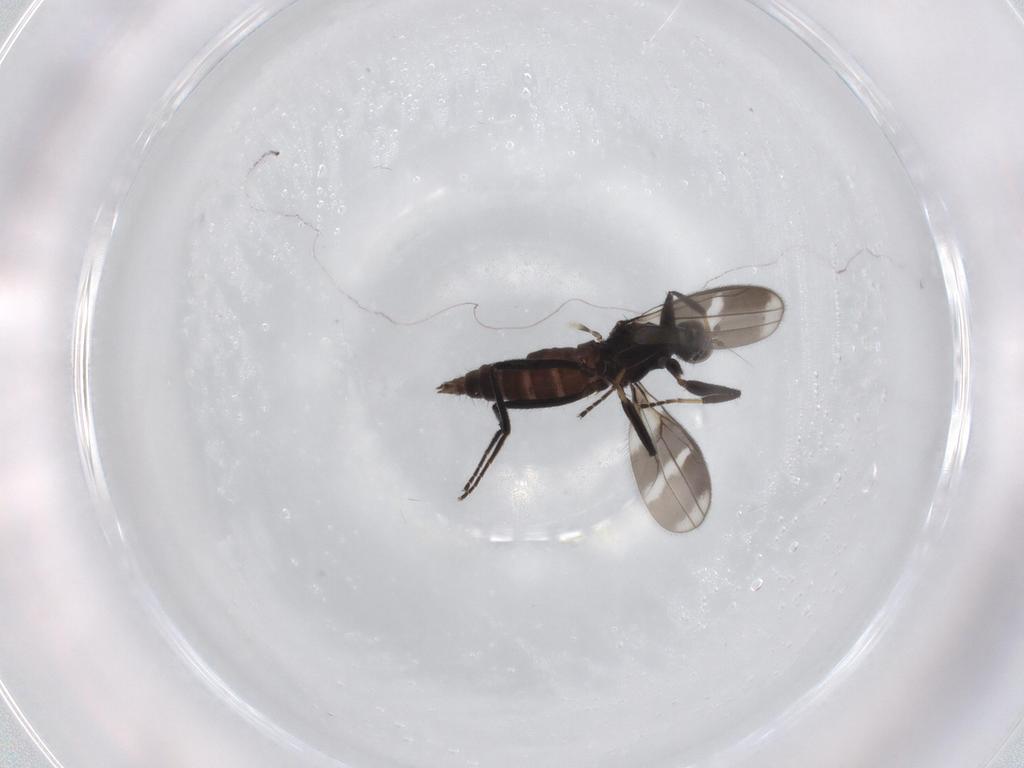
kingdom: Animalia
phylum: Arthropoda
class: Insecta
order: Diptera
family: Hybotidae
